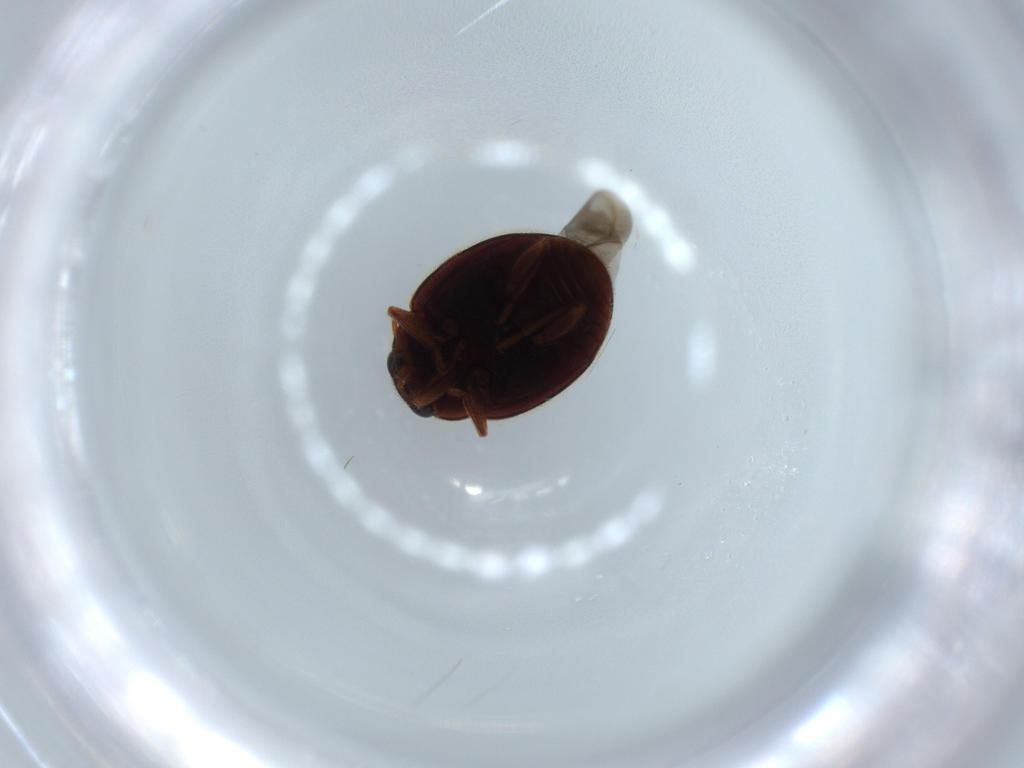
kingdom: Animalia
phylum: Arthropoda
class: Insecta
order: Coleoptera
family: Coccinellidae
